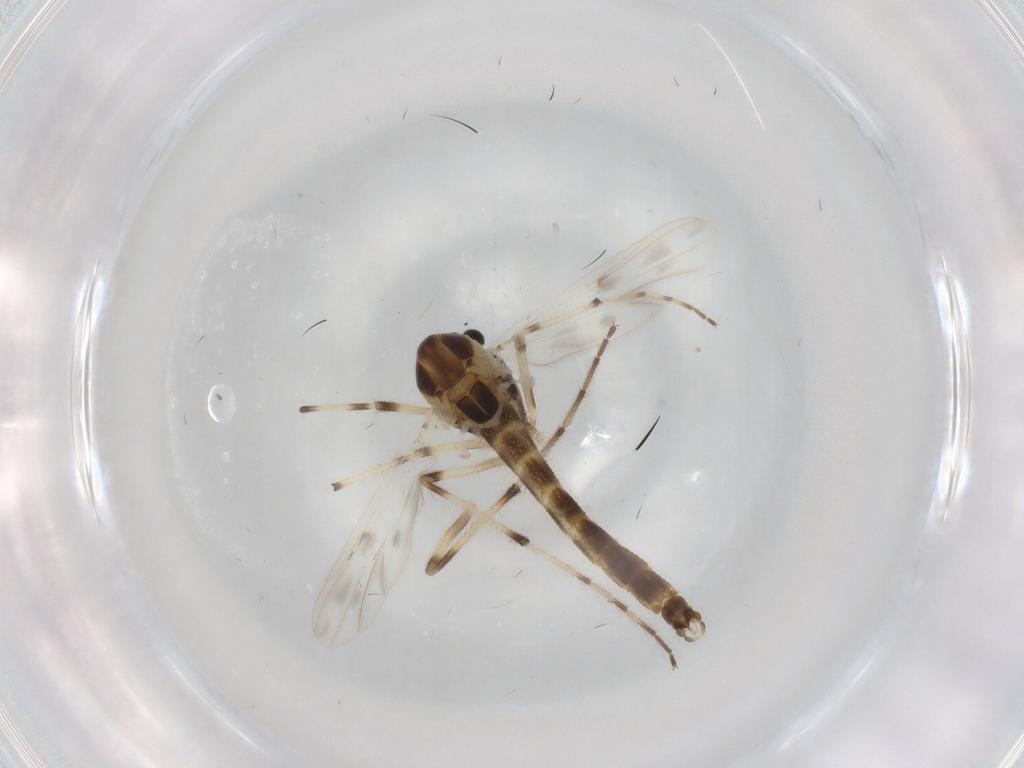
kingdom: Animalia
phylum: Arthropoda
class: Insecta
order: Diptera
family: Chironomidae
